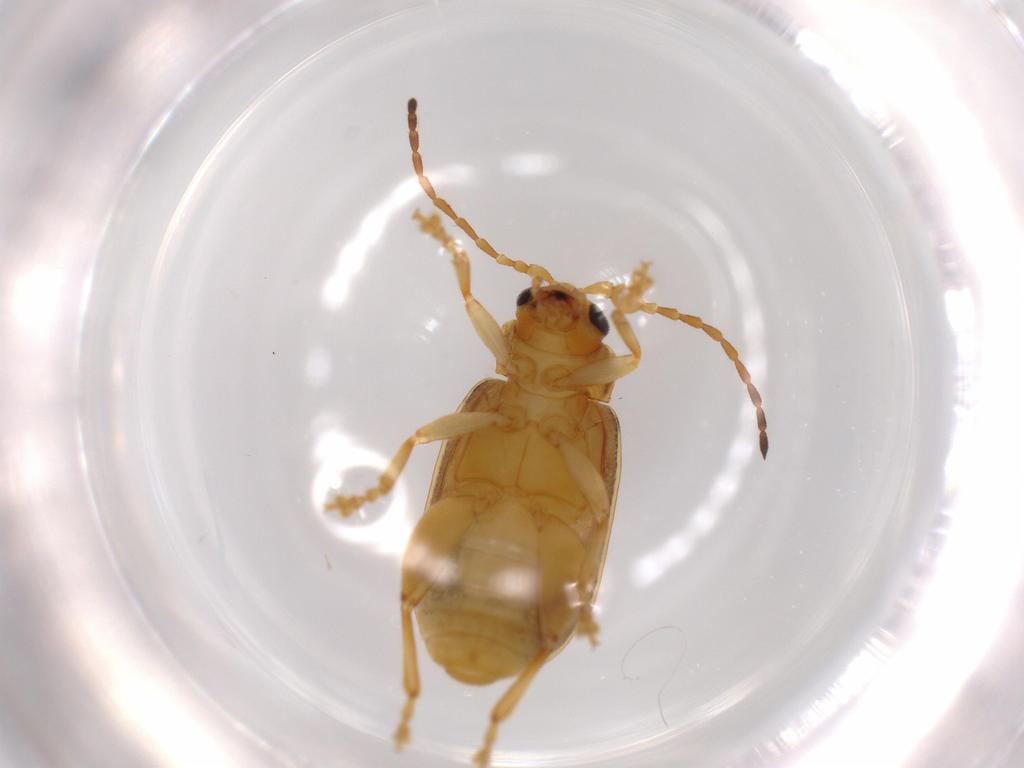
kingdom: Animalia
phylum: Arthropoda
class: Insecta
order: Coleoptera
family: Chrysomelidae
